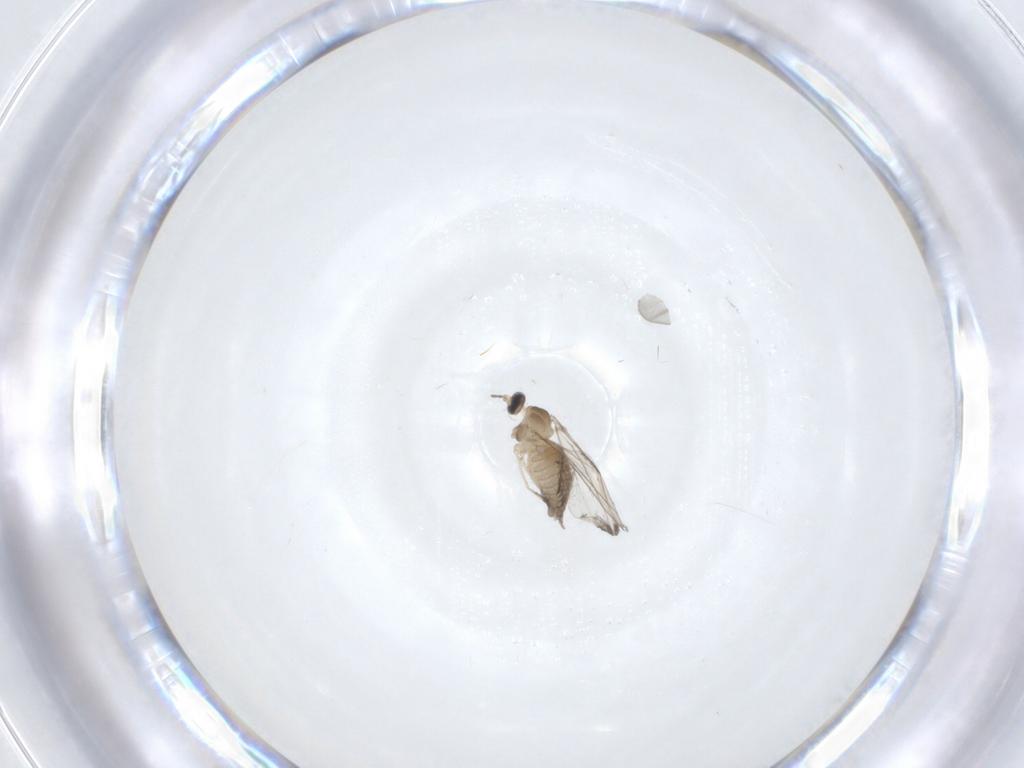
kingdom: Animalia
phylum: Arthropoda
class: Insecta
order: Diptera
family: Cecidomyiidae
